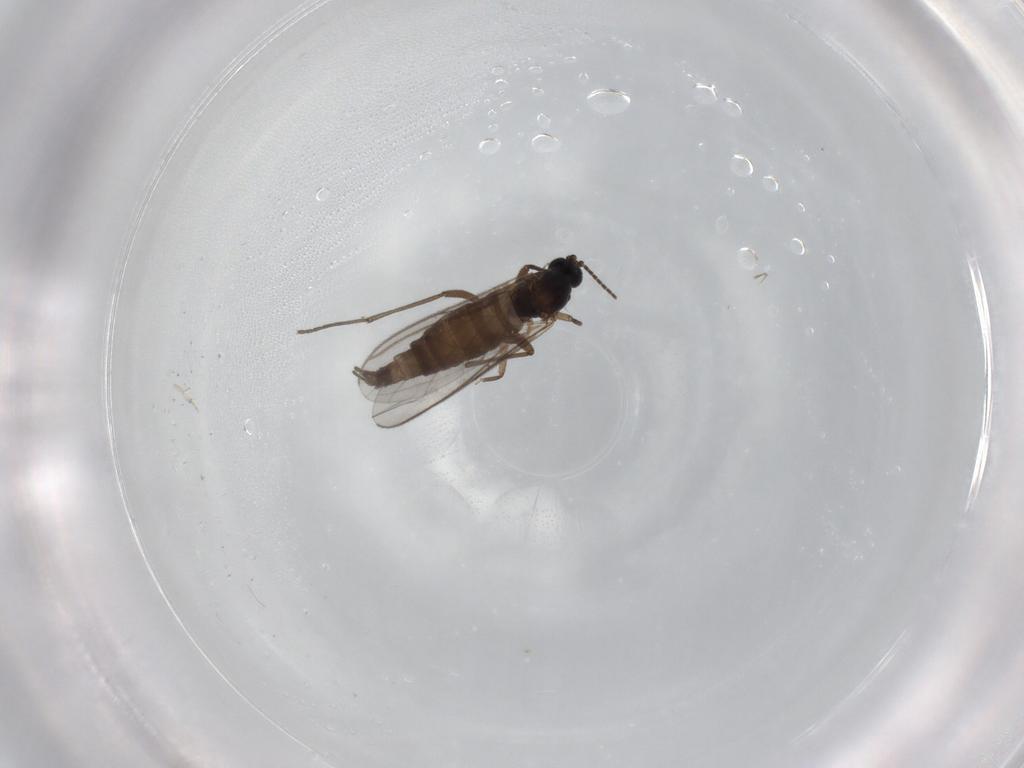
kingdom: Animalia
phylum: Arthropoda
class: Insecta
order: Diptera
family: Sciaridae
